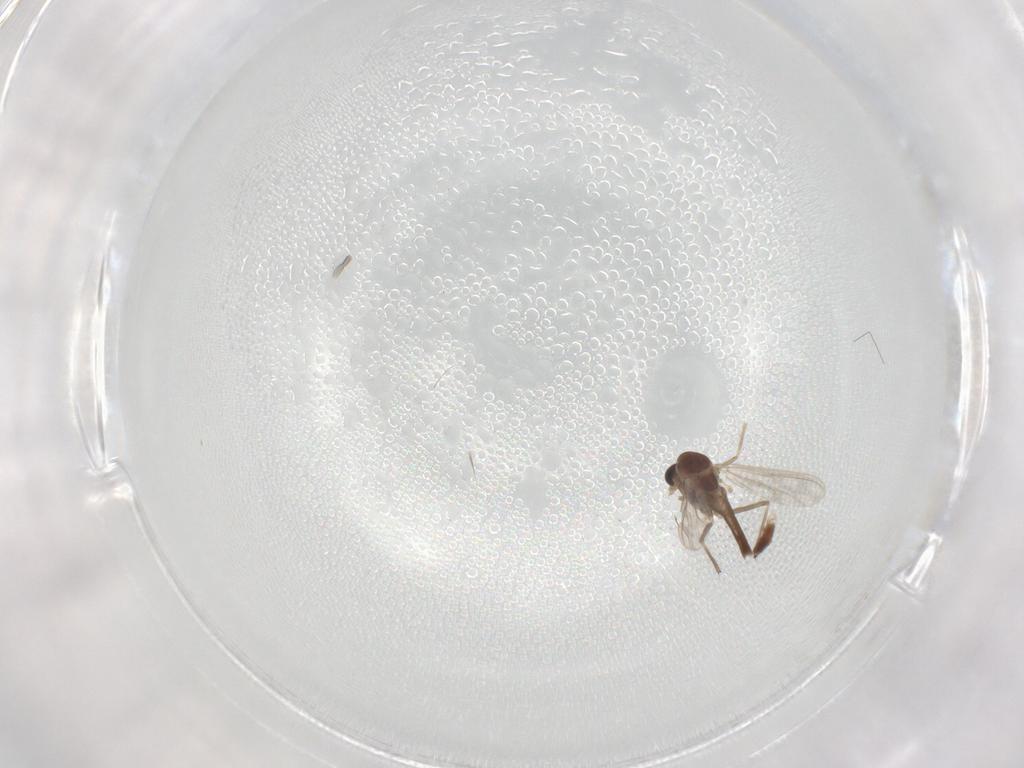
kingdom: Animalia
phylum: Arthropoda
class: Insecta
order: Diptera
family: Chironomidae
